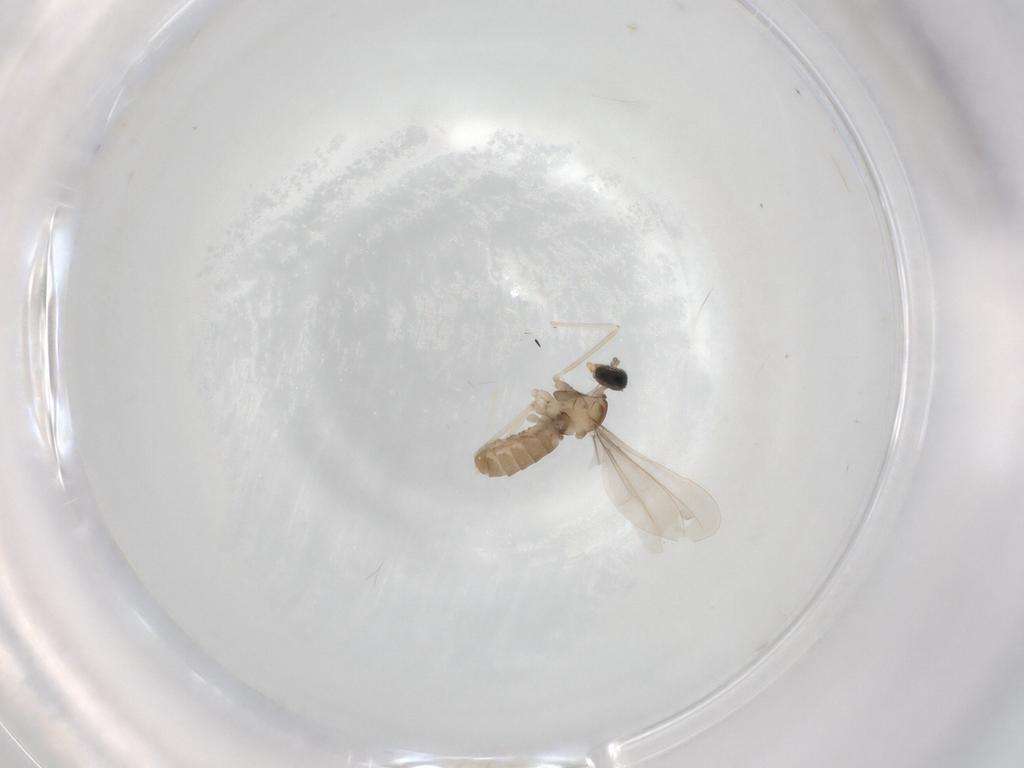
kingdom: Animalia
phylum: Arthropoda
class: Insecta
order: Diptera
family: Cecidomyiidae
